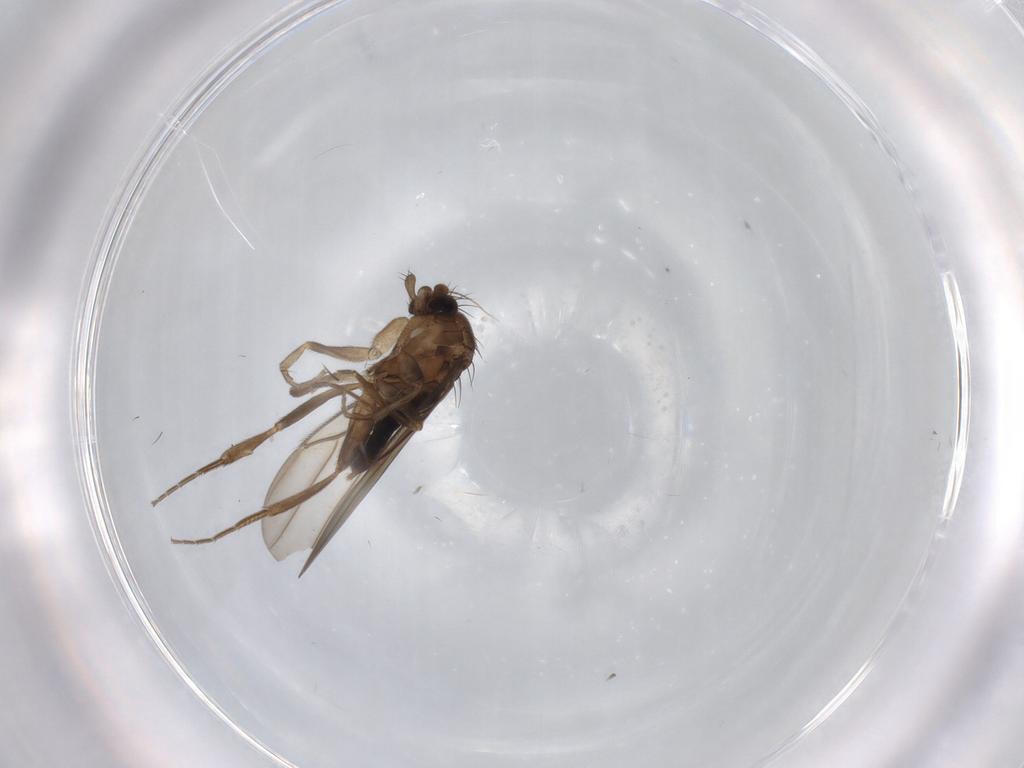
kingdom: Animalia
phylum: Arthropoda
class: Insecta
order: Diptera
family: Phoridae
